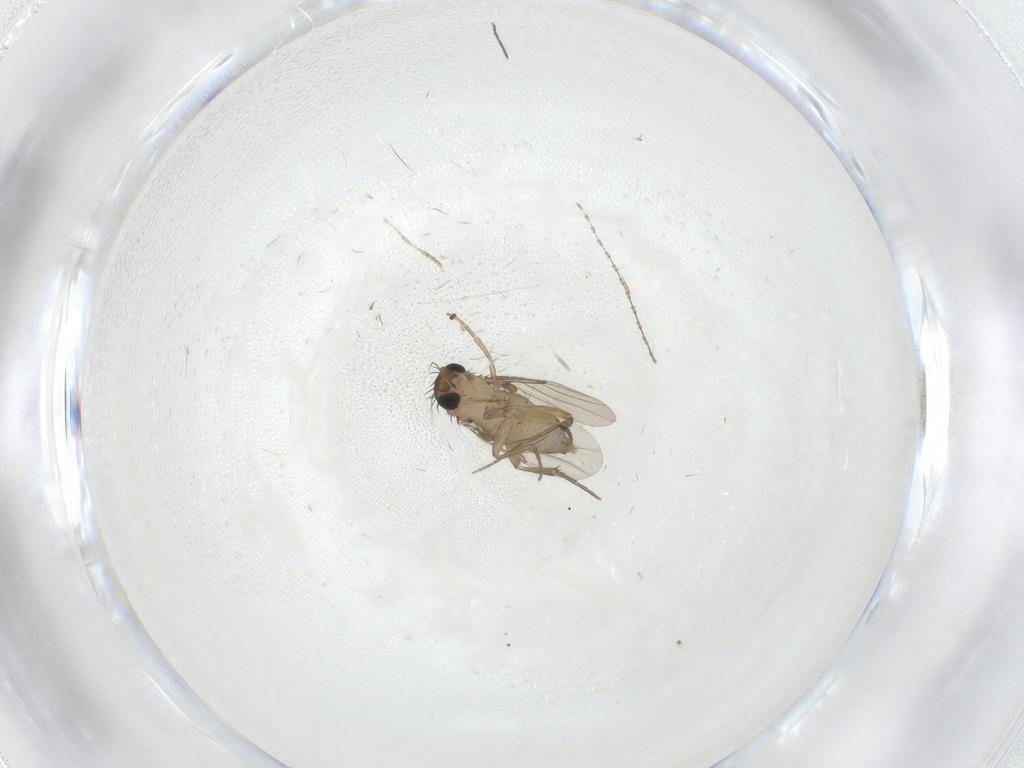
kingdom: Animalia
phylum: Arthropoda
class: Insecta
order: Diptera
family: Phoridae
